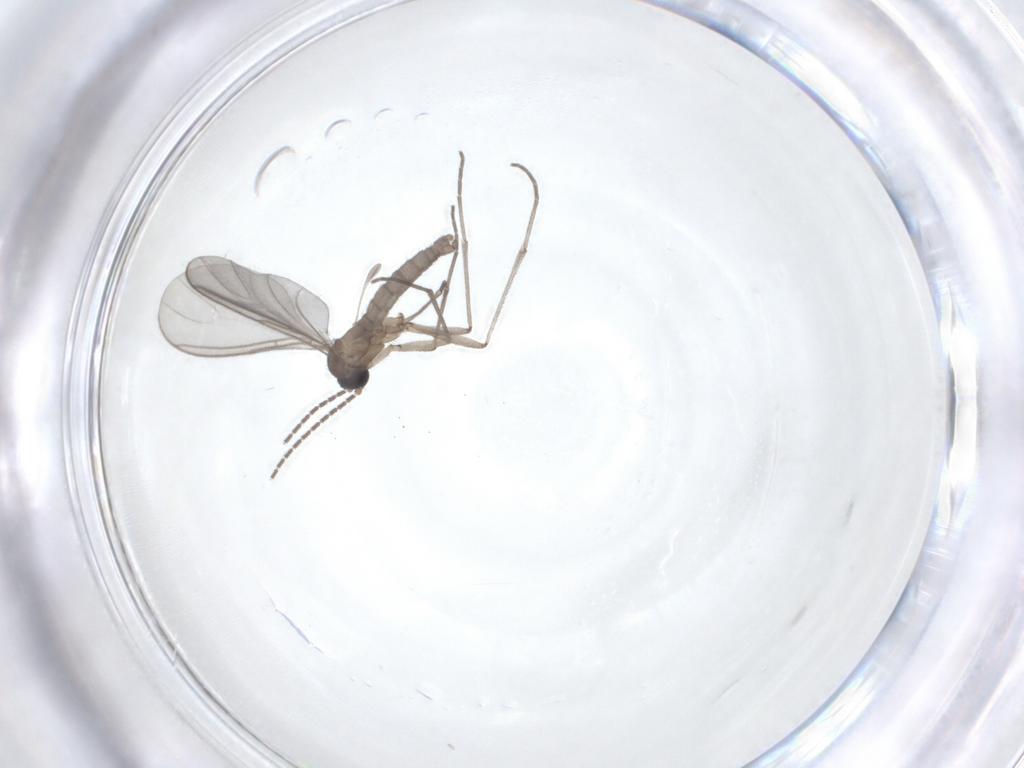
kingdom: Animalia
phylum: Arthropoda
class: Insecta
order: Diptera
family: Sciaridae
